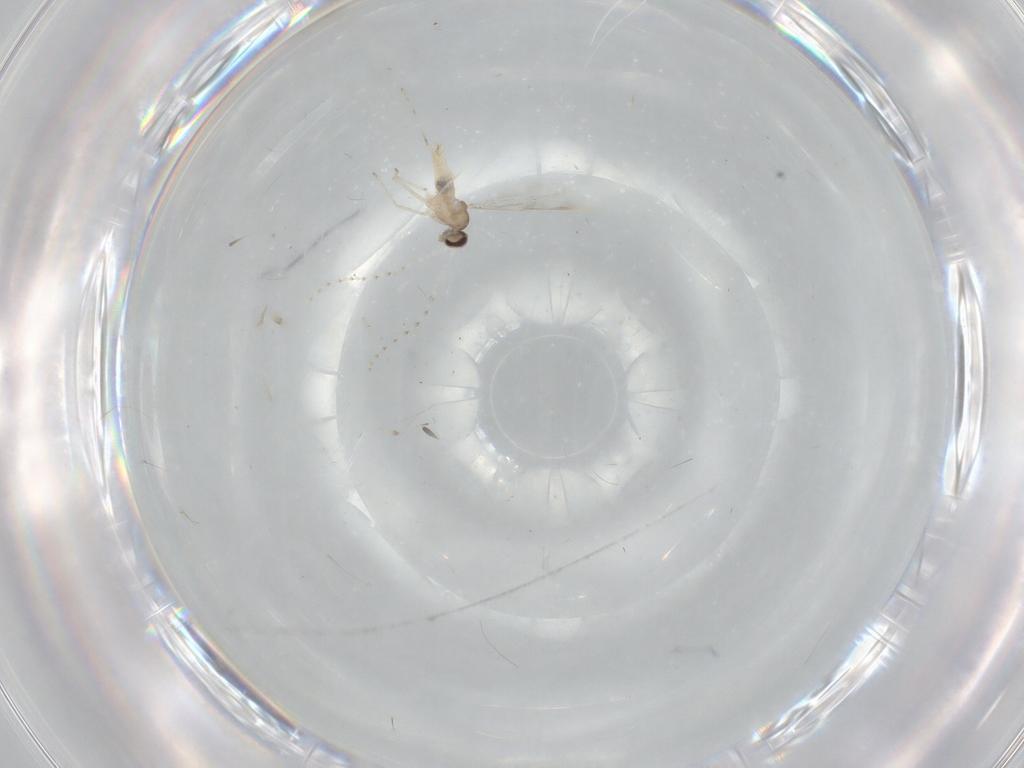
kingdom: Animalia
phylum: Arthropoda
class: Insecta
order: Diptera
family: Cecidomyiidae
